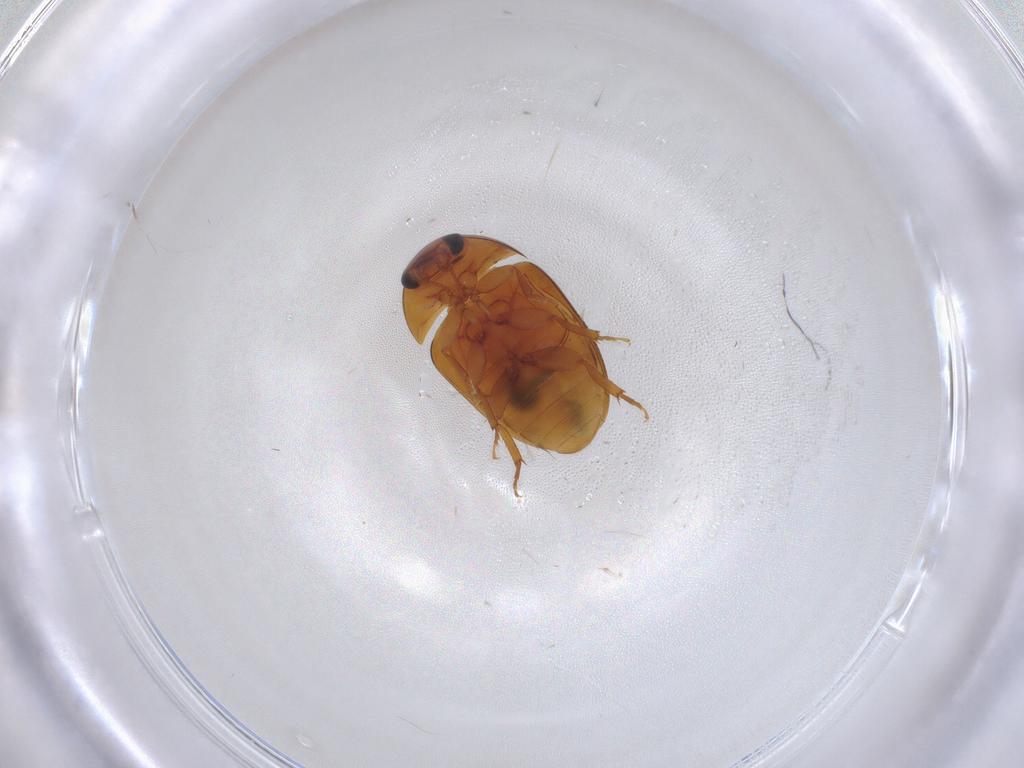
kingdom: Animalia
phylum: Arthropoda
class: Insecta
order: Coleoptera
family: Phalacridae
